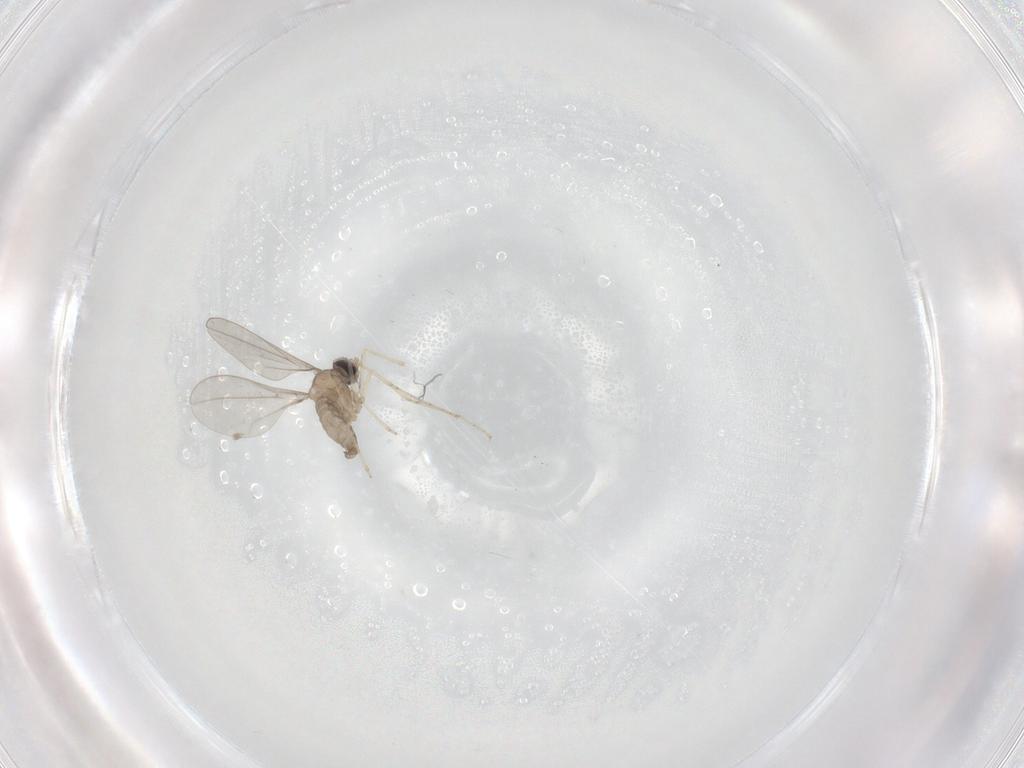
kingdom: Animalia
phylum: Arthropoda
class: Insecta
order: Diptera
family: Cecidomyiidae
